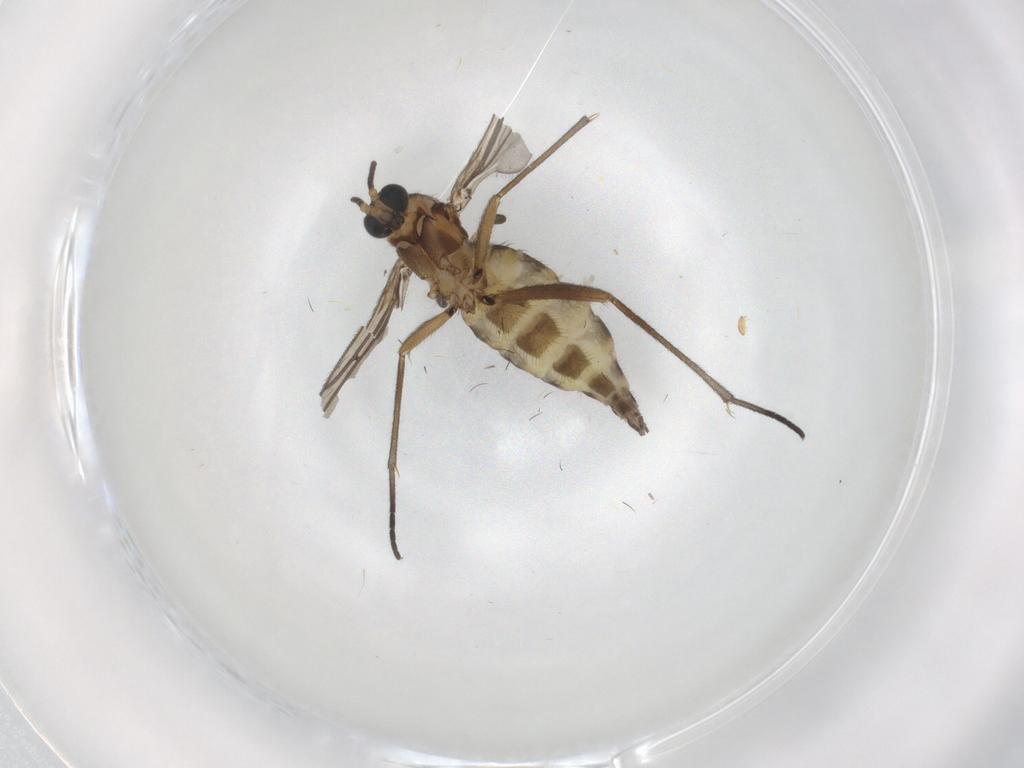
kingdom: Animalia
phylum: Arthropoda
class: Insecta
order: Diptera
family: Sciaridae
